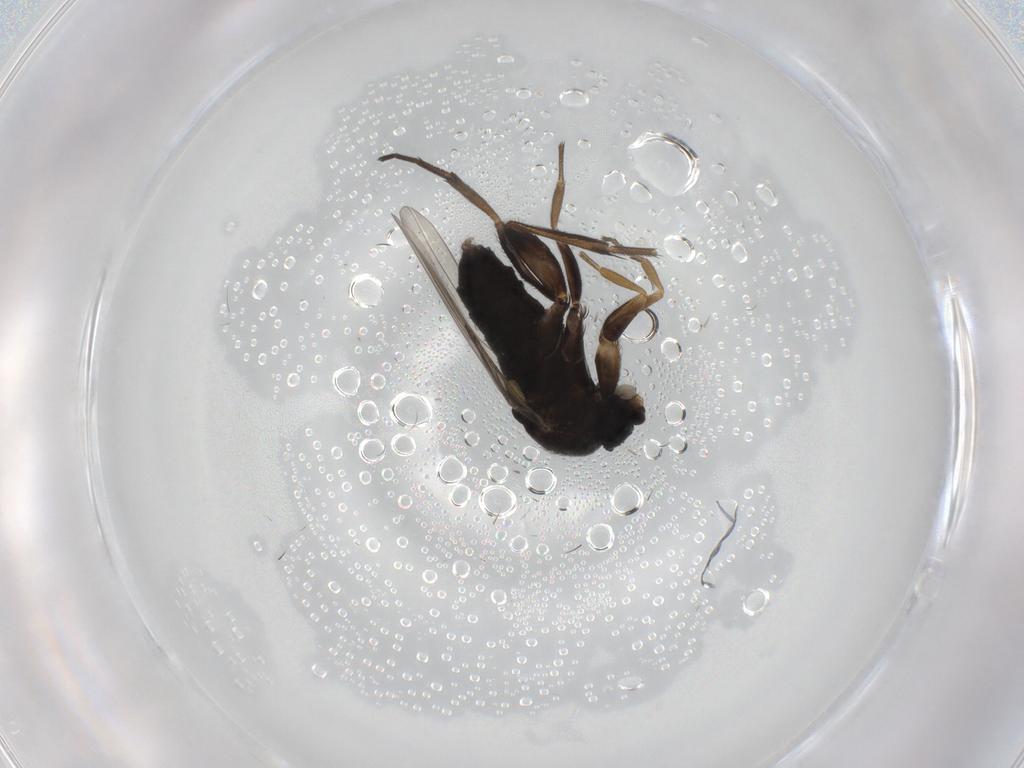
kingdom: Animalia
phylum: Arthropoda
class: Insecta
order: Diptera
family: Phoridae
